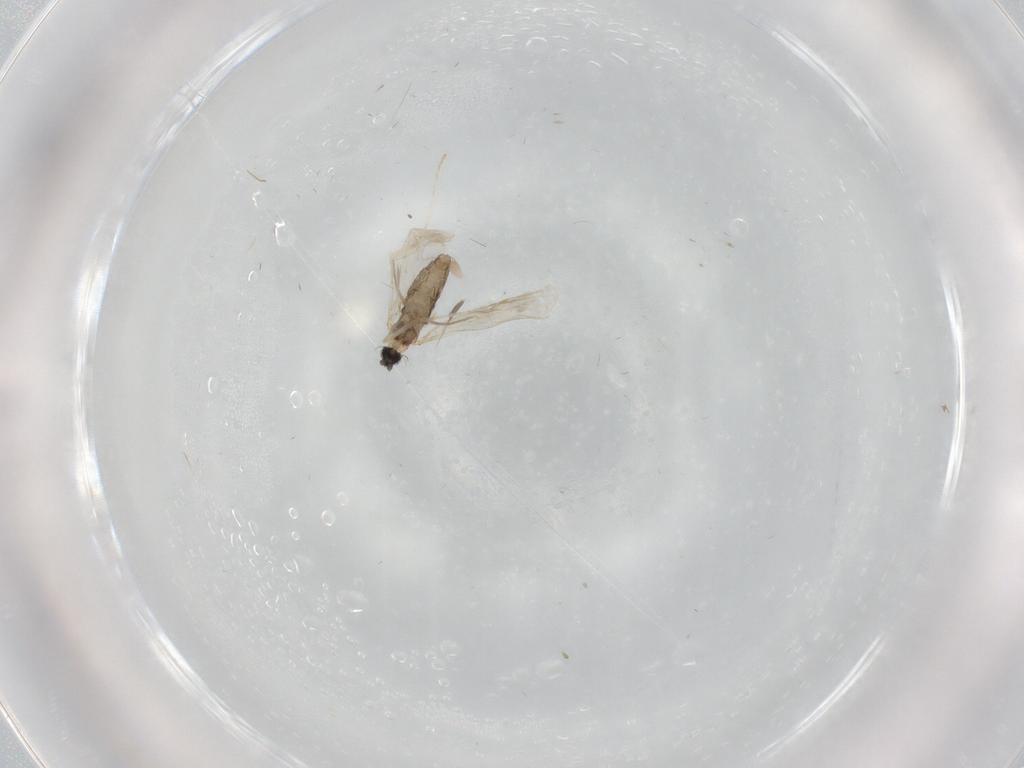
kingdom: Animalia
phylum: Arthropoda
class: Insecta
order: Diptera
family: Cecidomyiidae
